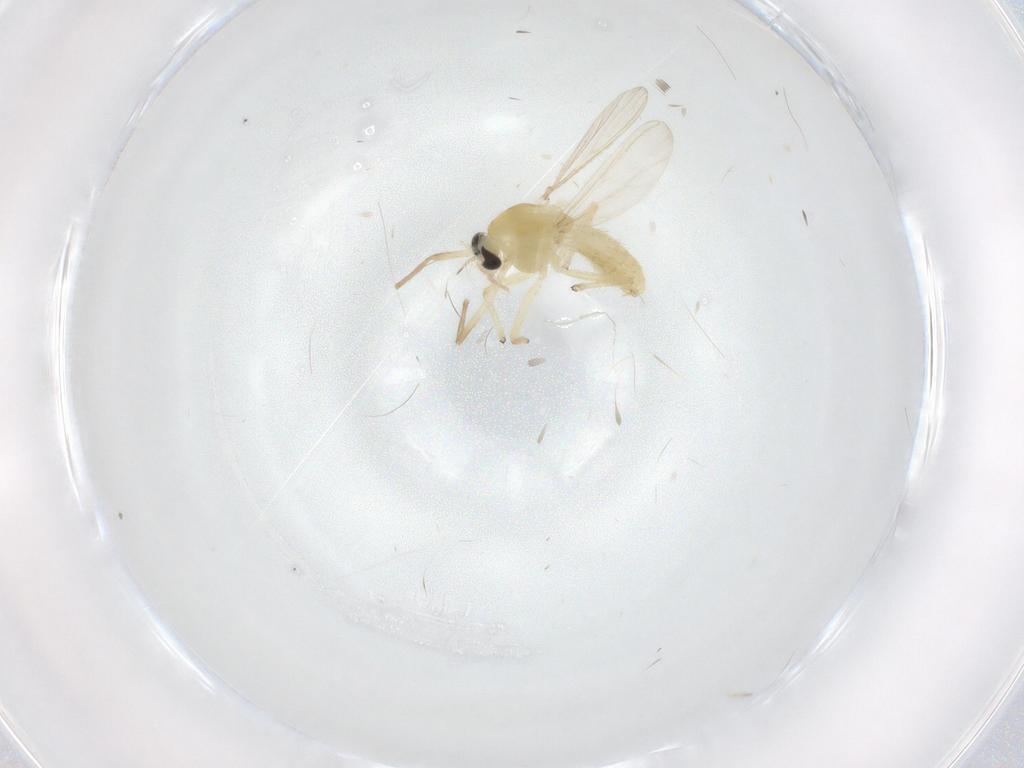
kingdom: Animalia
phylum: Arthropoda
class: Insecta
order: Diptera
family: Chironomidae
